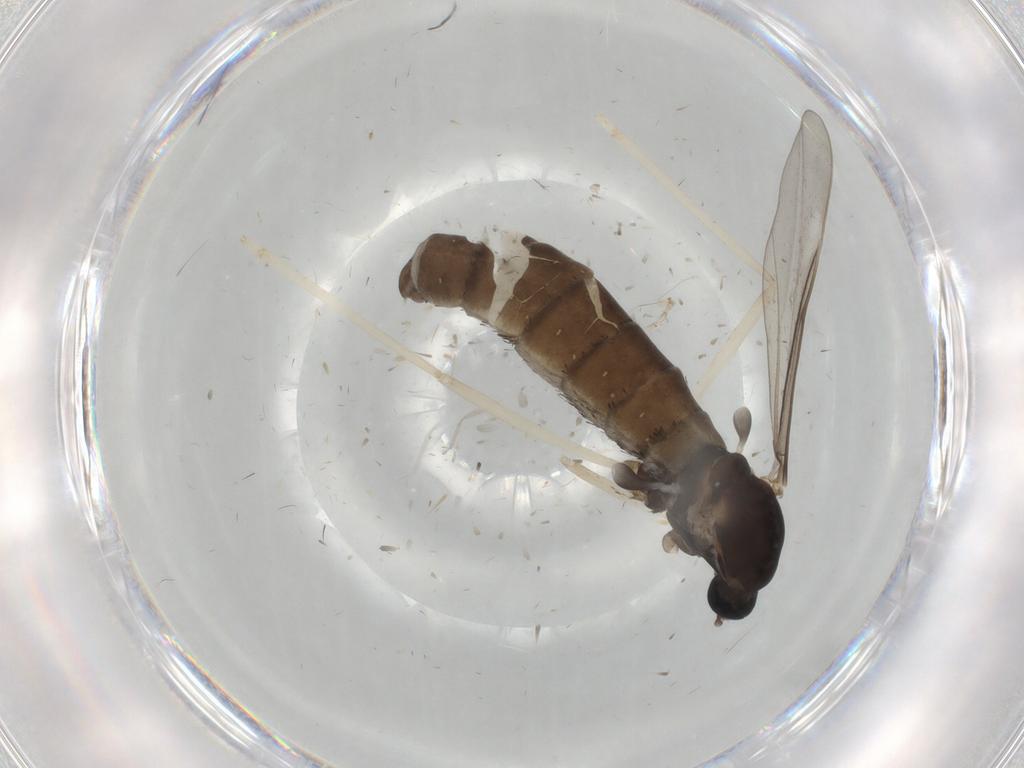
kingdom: Animalia
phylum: Arthropoda
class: Insecta
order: Diptera
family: Cecidomyiidae
